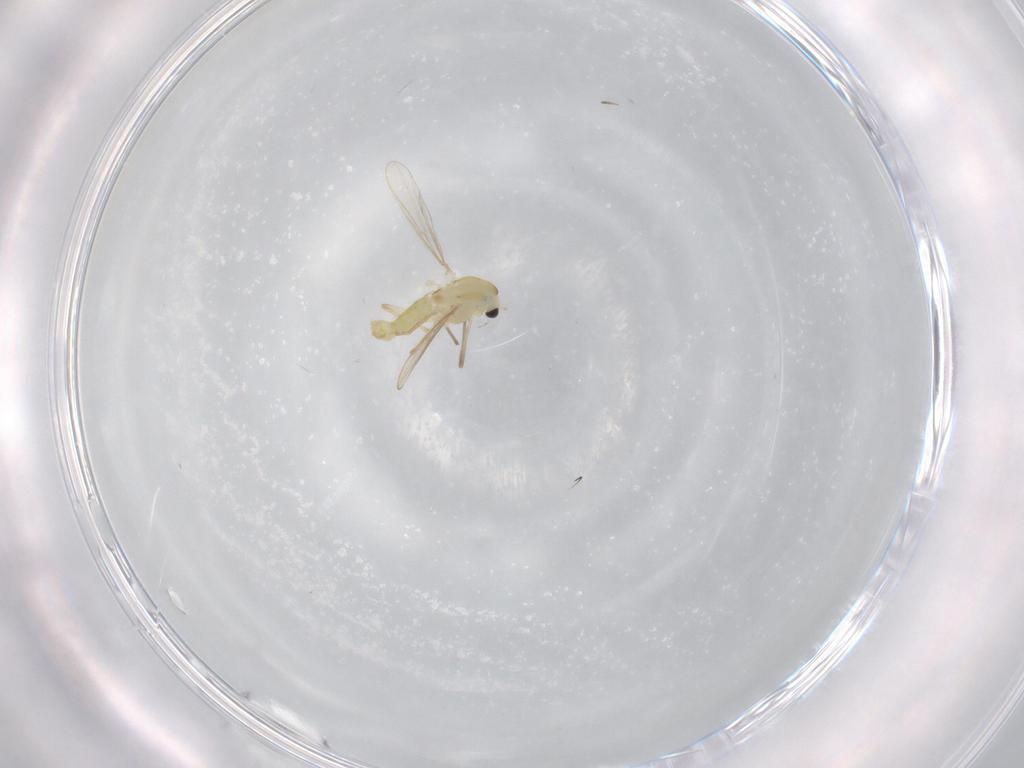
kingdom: Animalia
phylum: Arthropoda
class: Insecta
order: Diptera
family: Chironomidae
